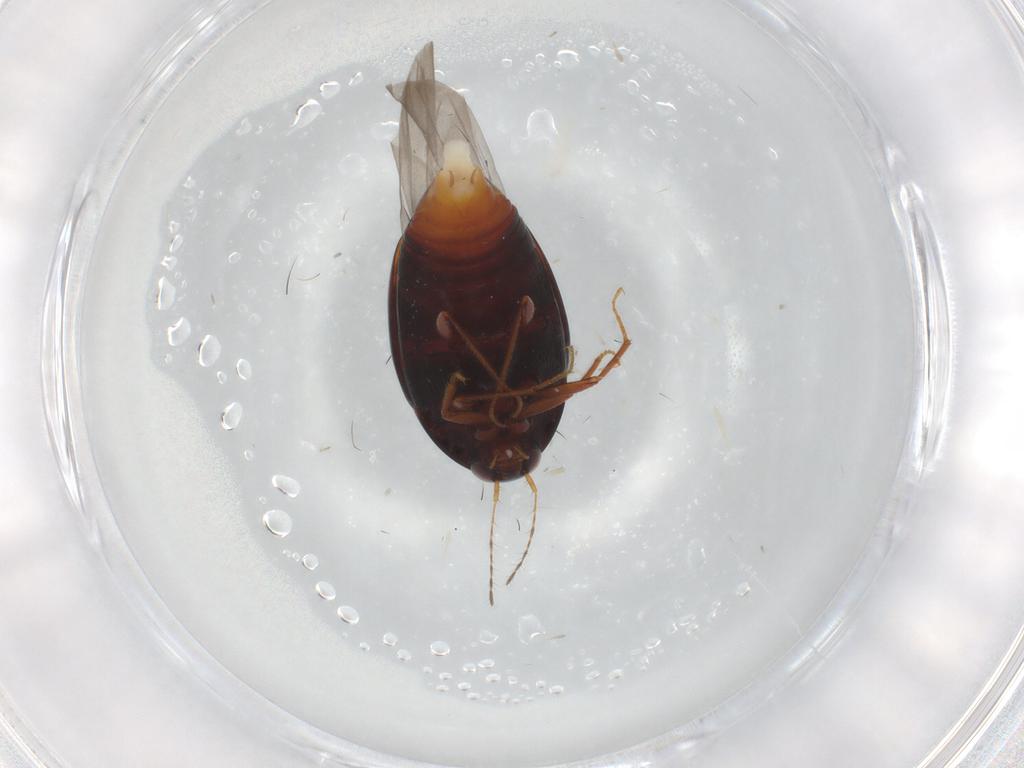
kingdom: Animalia
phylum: Arthropoda
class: Insecta
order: Coleoptera
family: Staphylinidae
